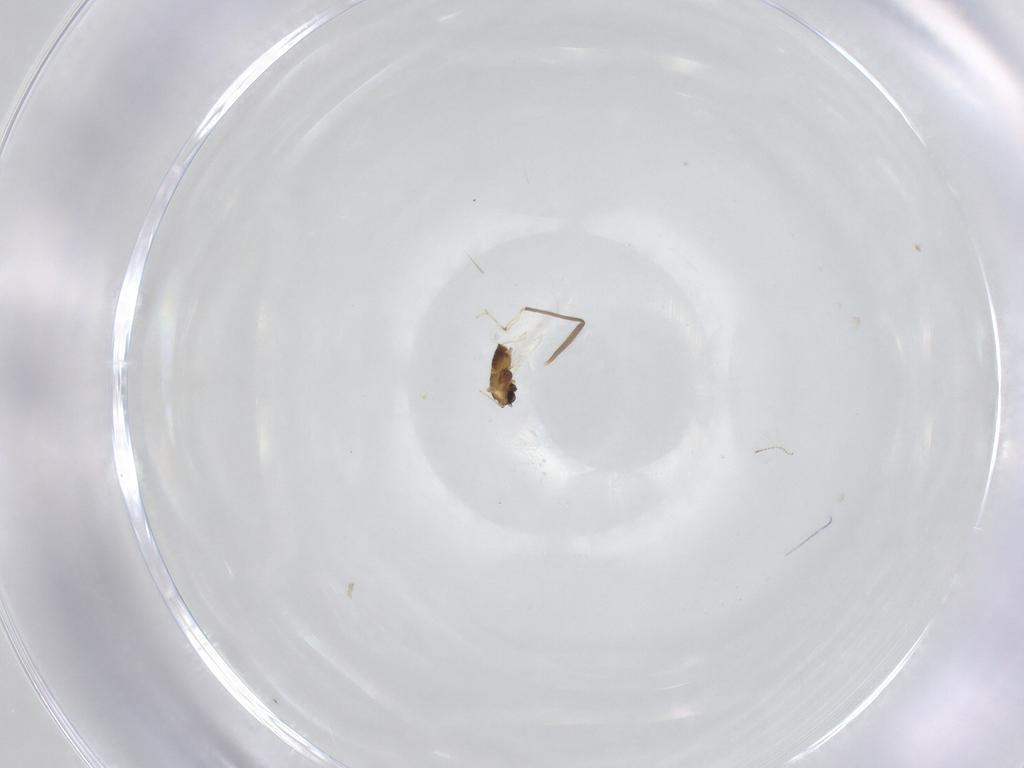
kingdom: Animalia
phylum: Arthropoda
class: Insecta
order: Diptera
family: Chironomidae
